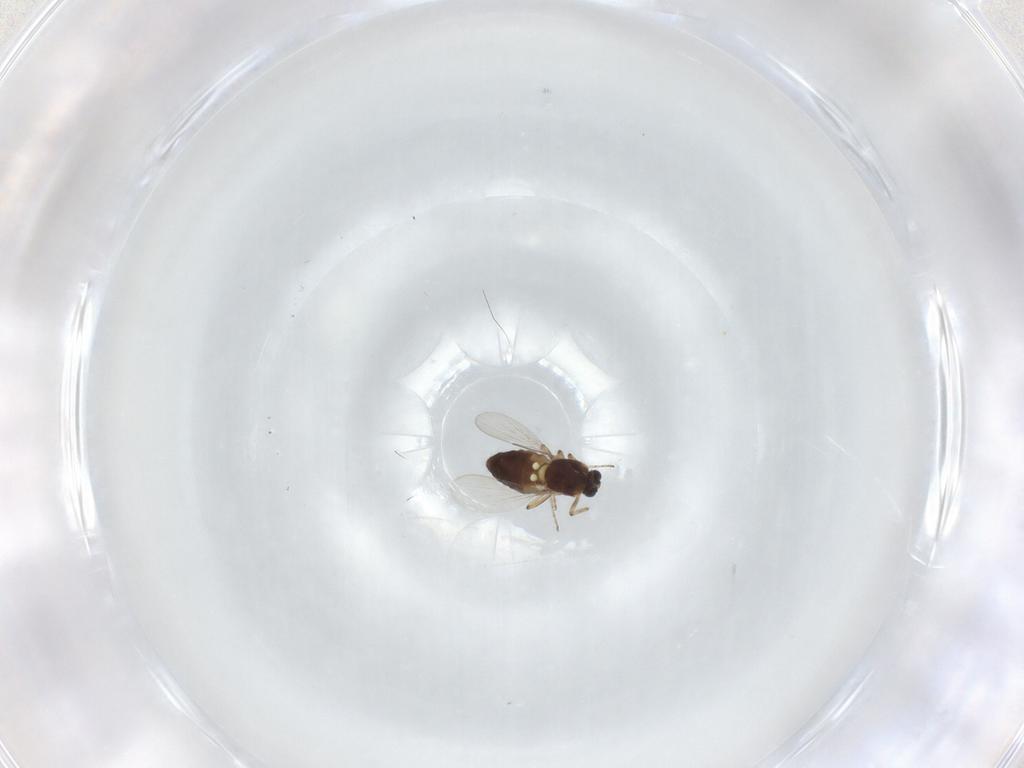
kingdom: Animalia
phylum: Arthropoda
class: Insecta
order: Diptera
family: Ceratopogonidae
